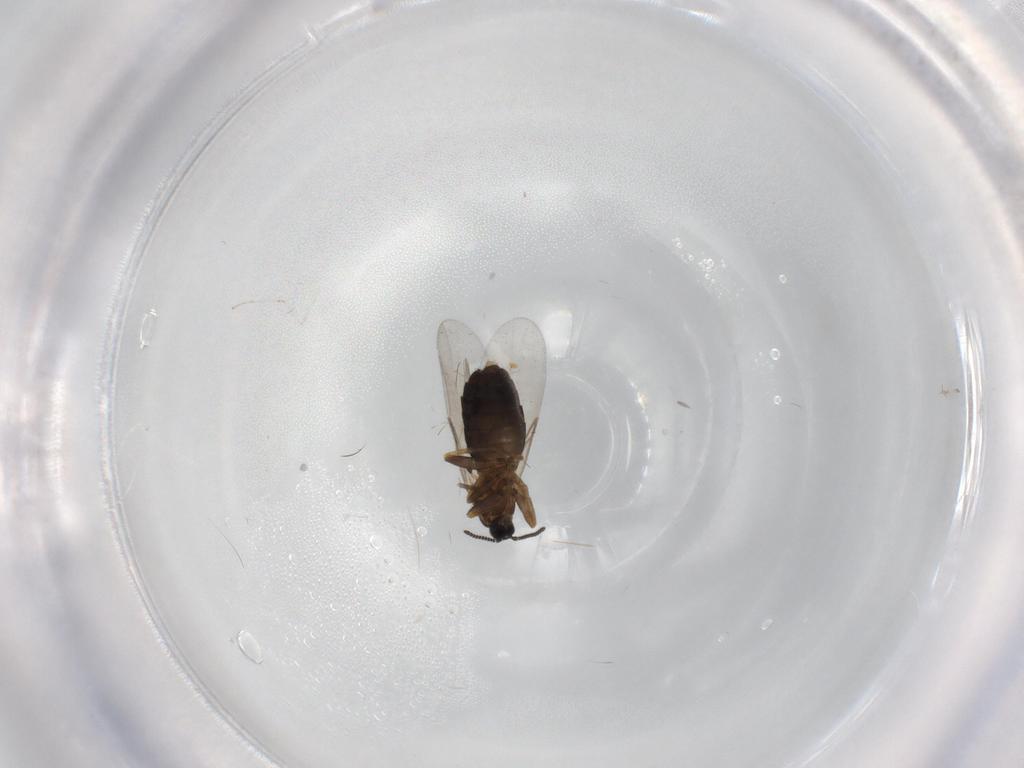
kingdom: Animalia
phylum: Arthropoda
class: Insecta
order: Diptera
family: Scatopsidae
